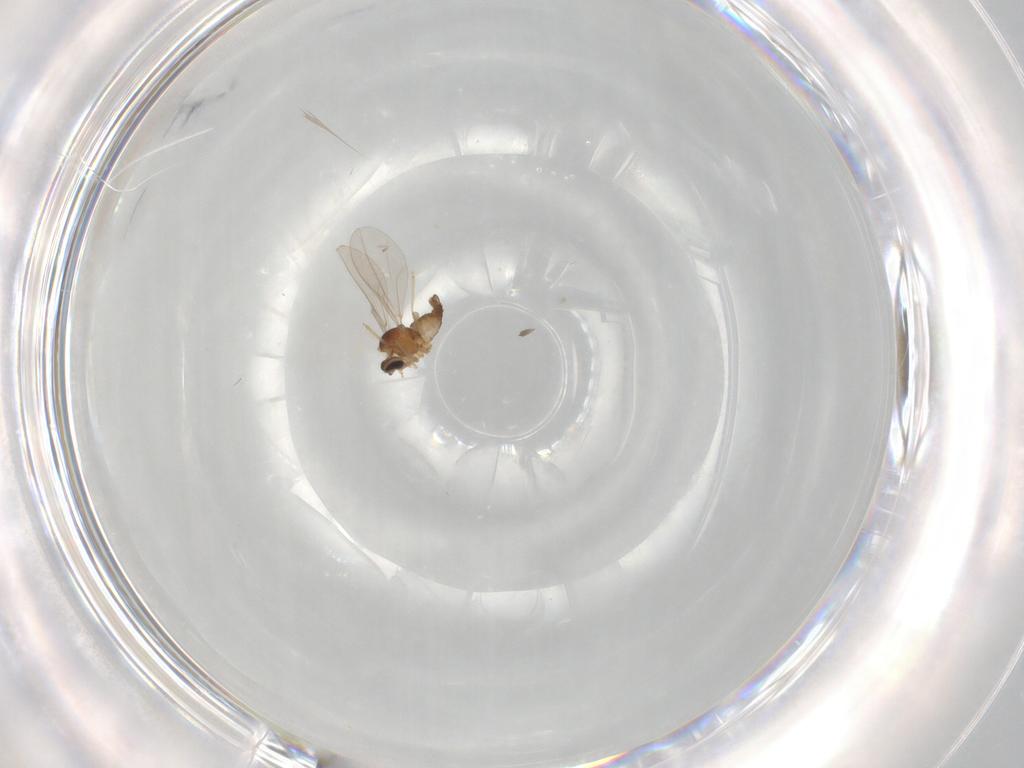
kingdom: Animalia
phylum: Arthropoda
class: Insecta
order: Diptera
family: Cecidomyiidae
